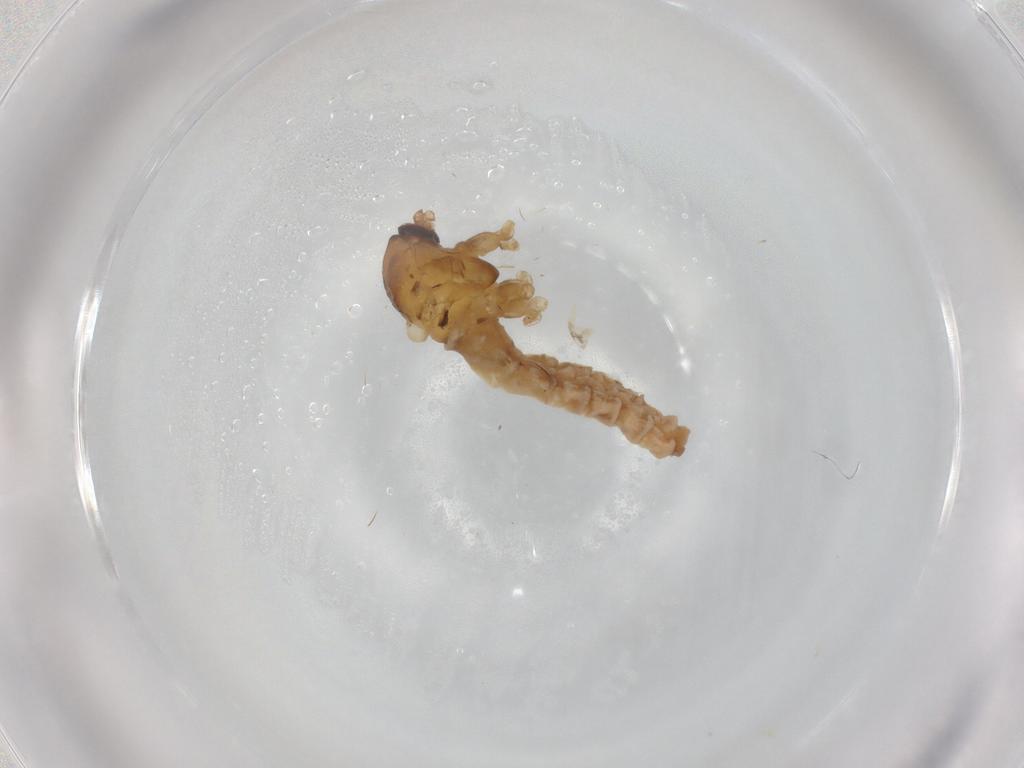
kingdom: Animalia
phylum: Arthropoda
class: Insecta
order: Diptera
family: Cecidomyiidae
